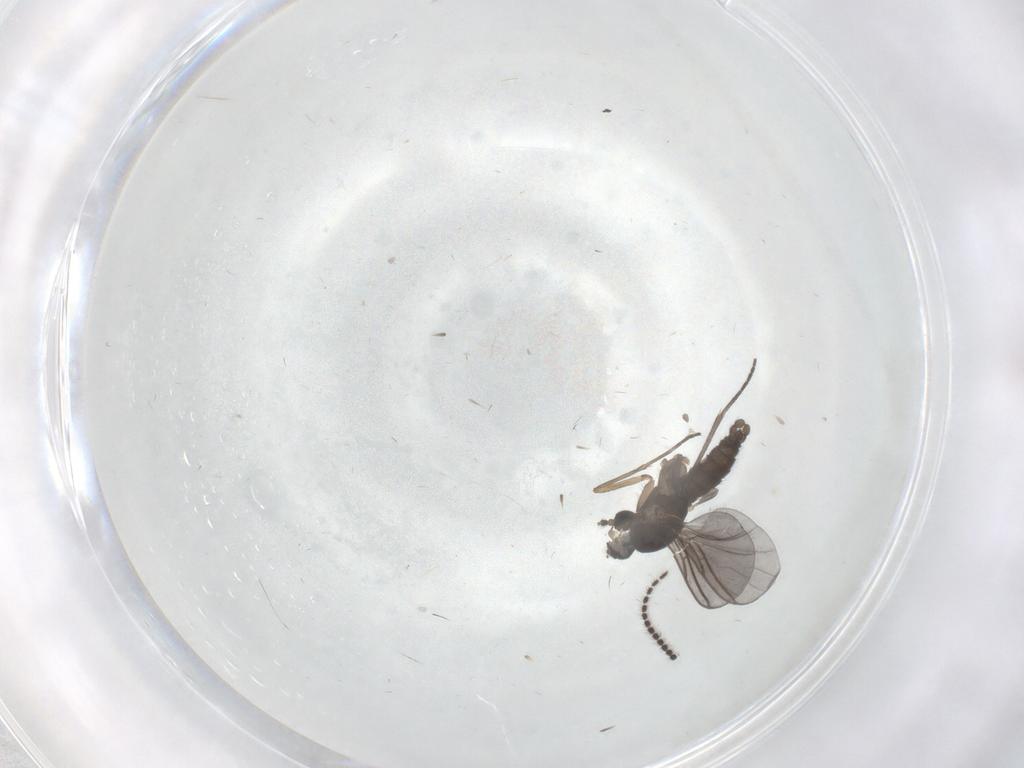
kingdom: Animalia
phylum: Arthropoda
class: Insecta
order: Diptera
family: Sciaridae
